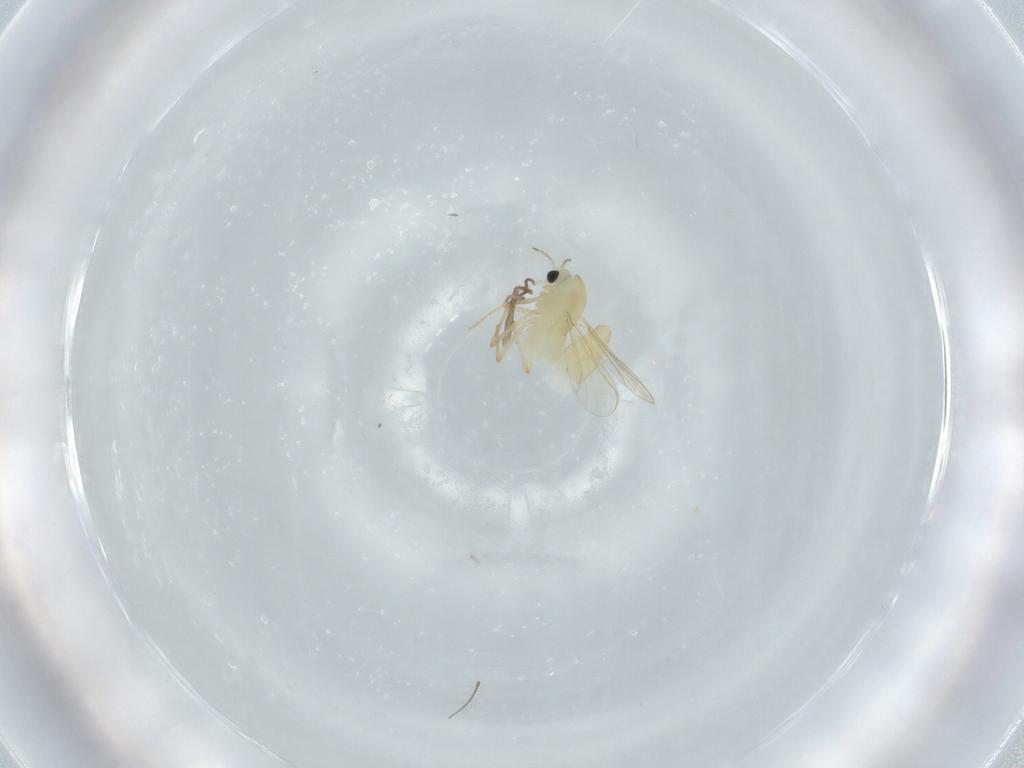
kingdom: Animalia
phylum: Arthropoda
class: Insecta
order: Diptera
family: Chironomidae
